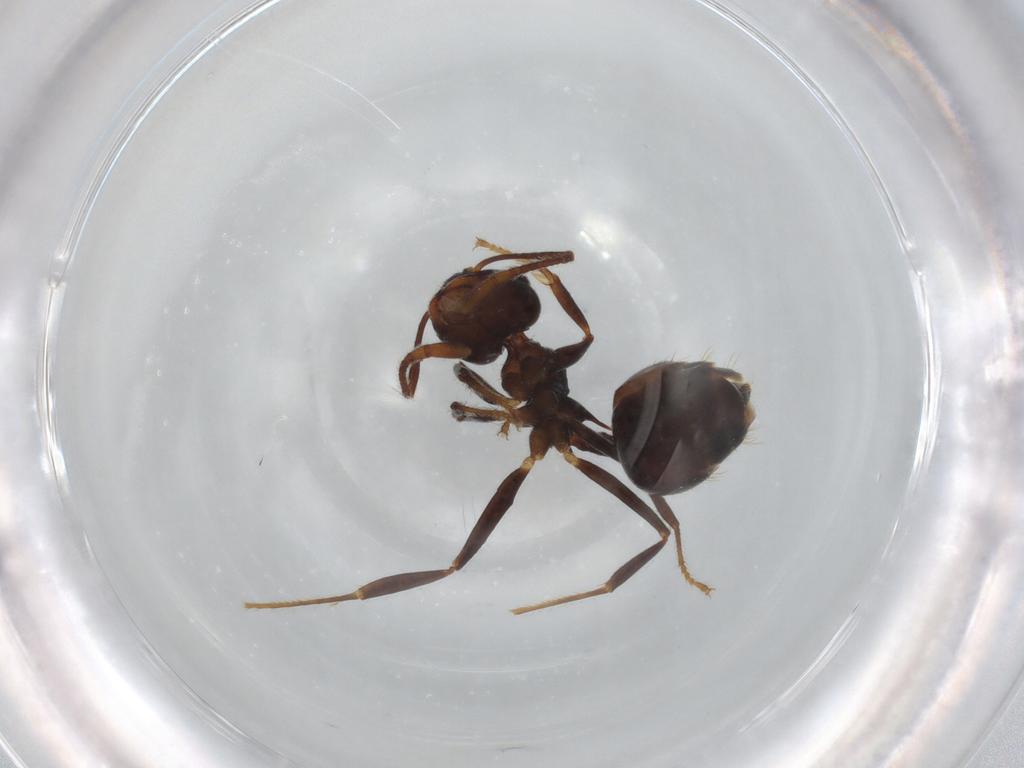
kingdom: Animalia
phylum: Arthropoda
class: Insecta
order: Hymenoptera
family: Formicidae
